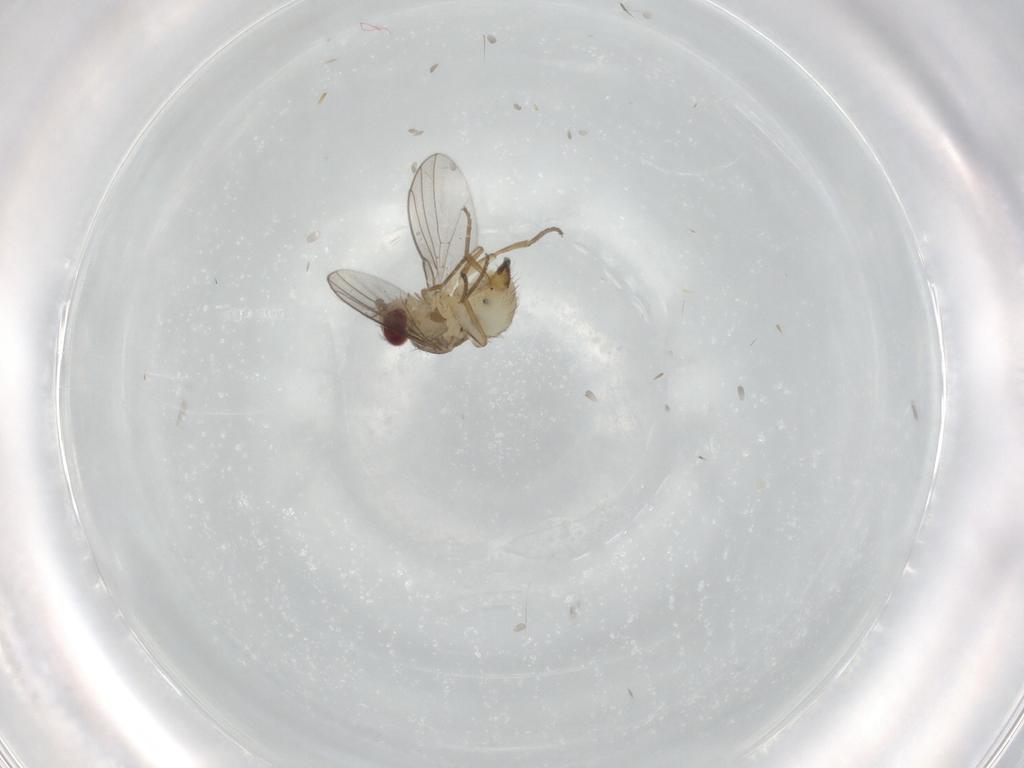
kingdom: Animalia
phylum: Arthropoda
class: Insecta
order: Diptera
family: Agromyzidae
